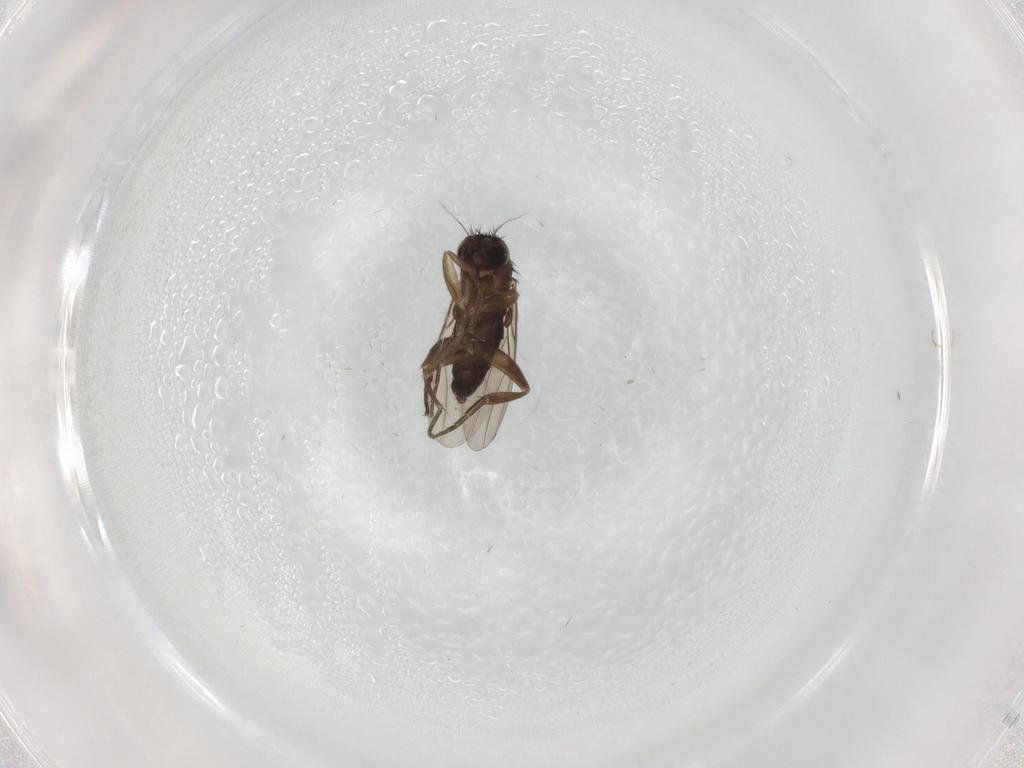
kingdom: Animalia
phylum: Arthropoda
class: Insecta
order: Diptera
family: Phoridae
